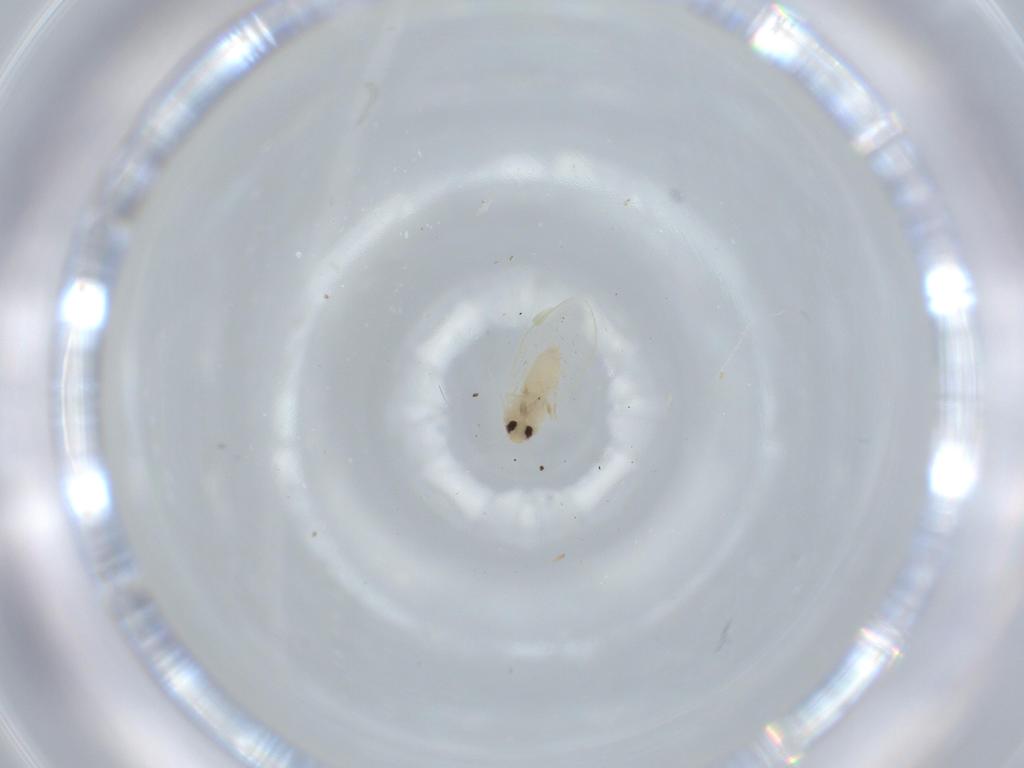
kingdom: Animalia
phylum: Arthropoda
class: Insecta
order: Hemiptera
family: Aleyrodidae
